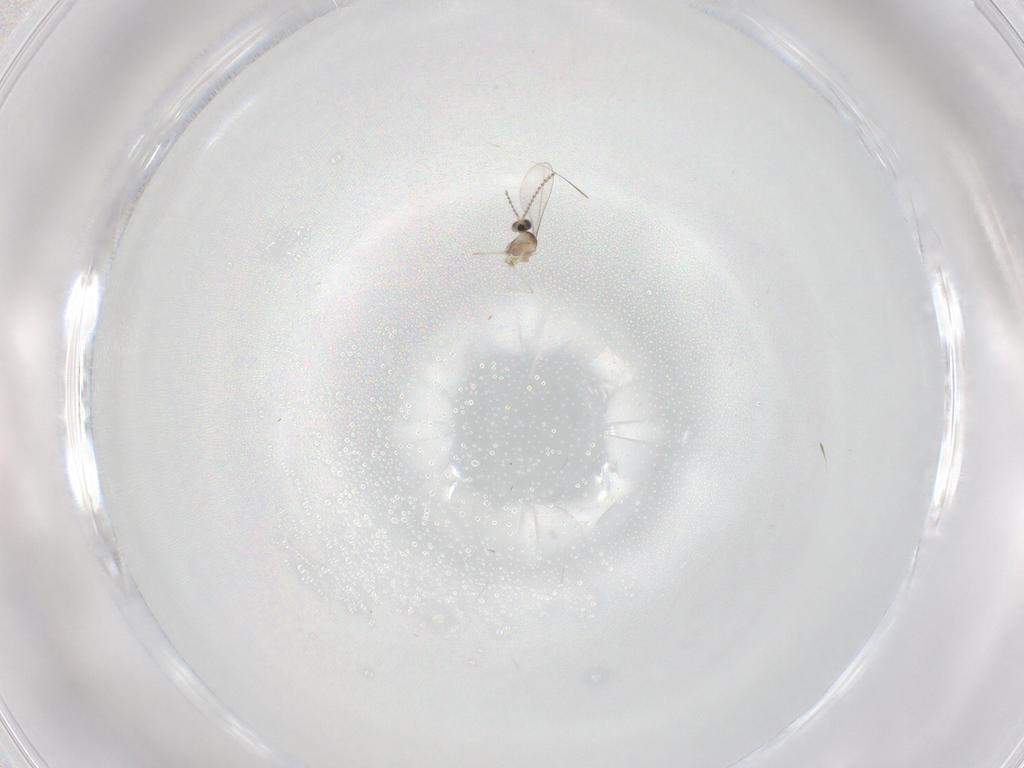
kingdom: Animalia
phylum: Arthropoda
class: Insecta
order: Diptera
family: Cecidomyiidae
